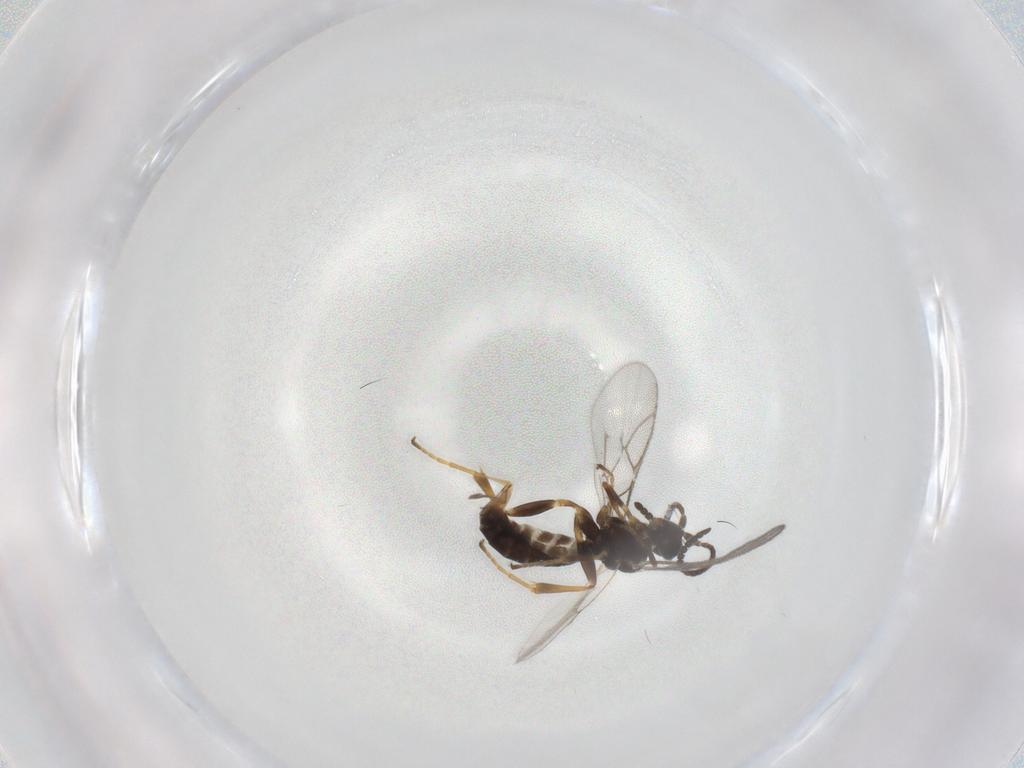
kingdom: Animalia
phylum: Arthropoda
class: Insecta
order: Hymenoptera
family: Ichneumonidae
